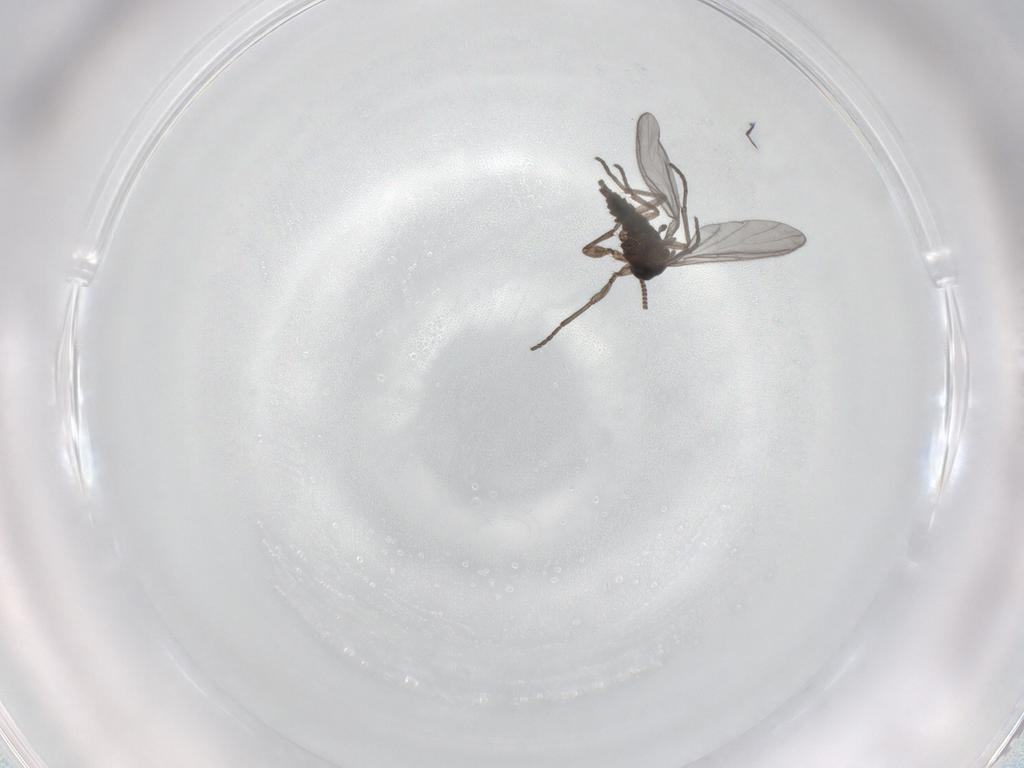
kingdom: Animalia
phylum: Arthropoda
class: Insecta
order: Diptera
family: Sciaridae
